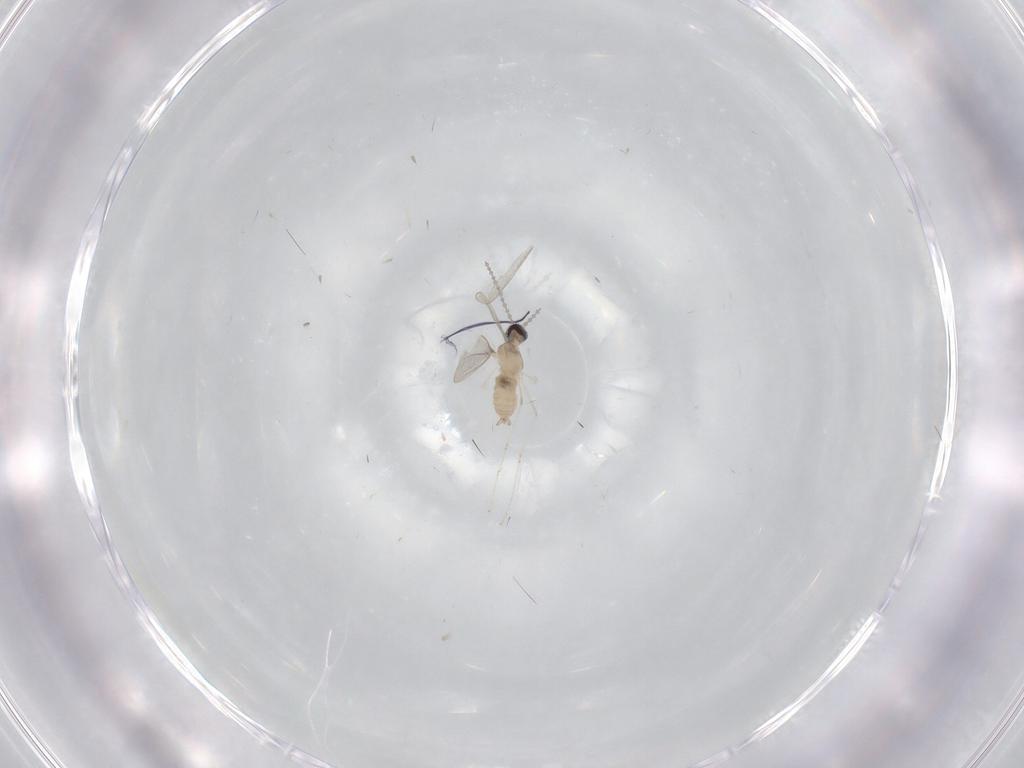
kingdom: Animalia
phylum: Arthropoda
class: Insecta
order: Diptera
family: Cecidomyiidae
